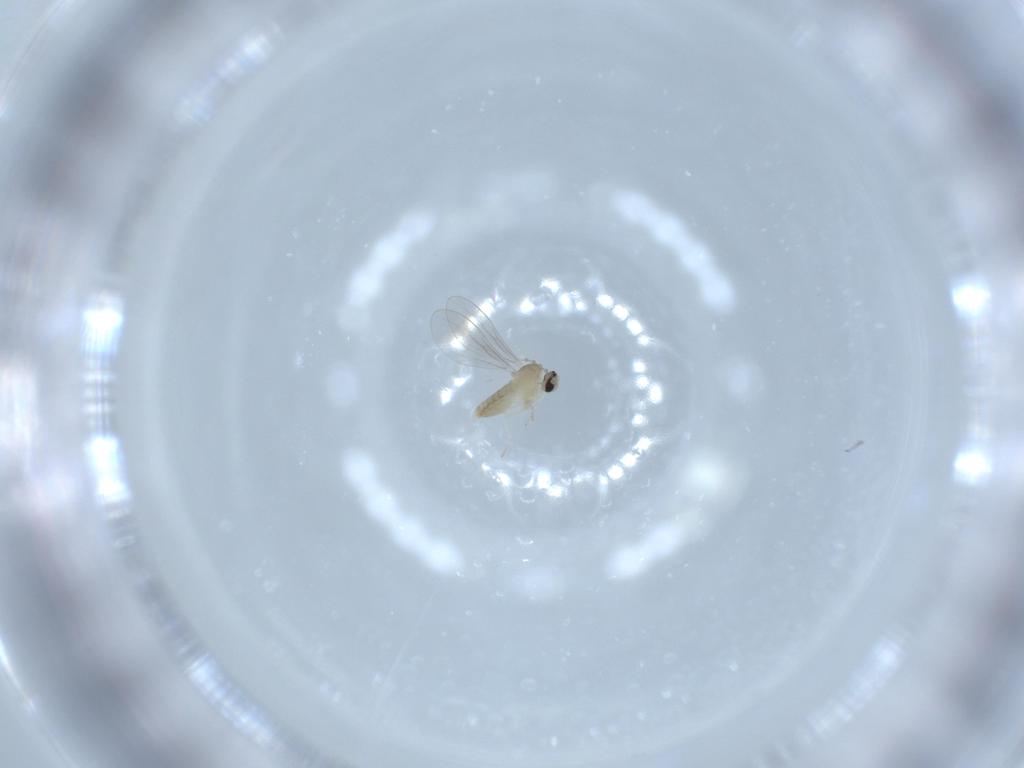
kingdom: Animalia
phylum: Arthropoda
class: Insecta
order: Diptera
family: Cecidomyiidae
